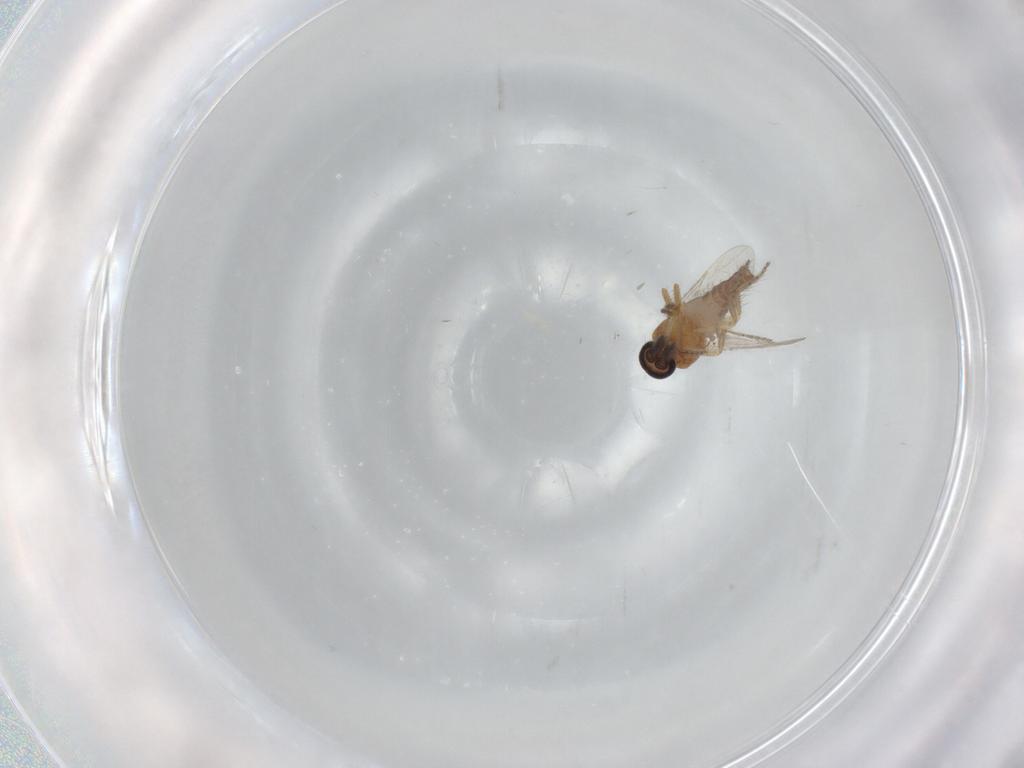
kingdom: Animalia
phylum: Arthropoda
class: Insecta
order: Diptera
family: Ceratopogonidae
